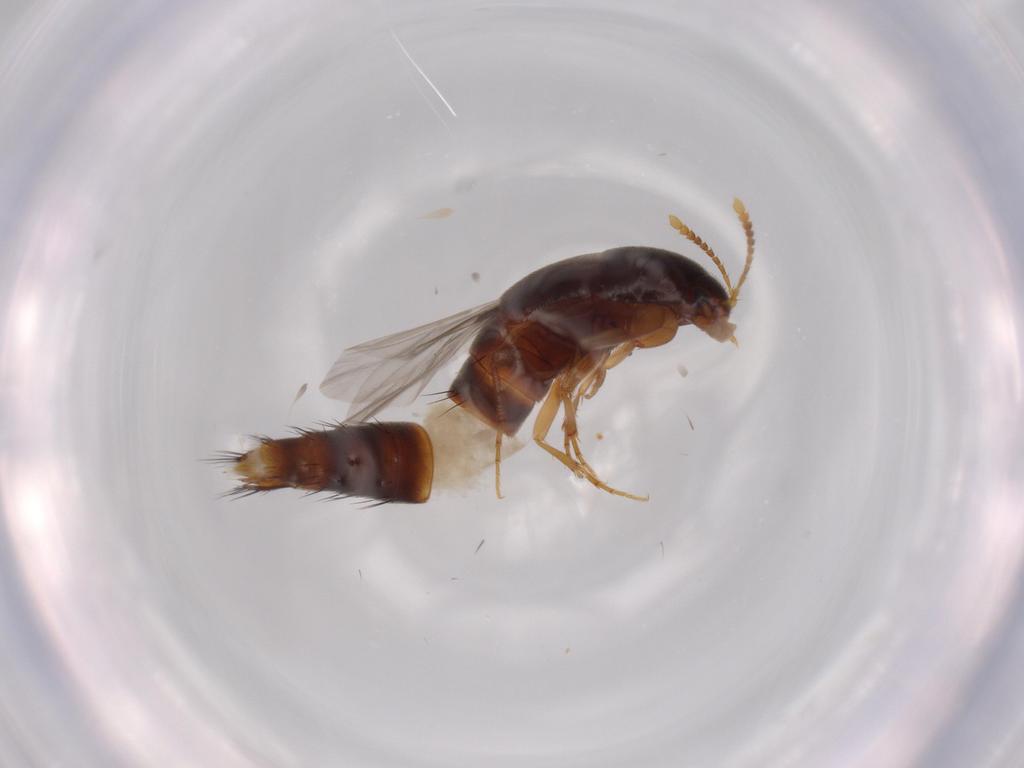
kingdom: Animalia
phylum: Arthropoda
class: Insecta
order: Coleoptera
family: Staphylinidae
